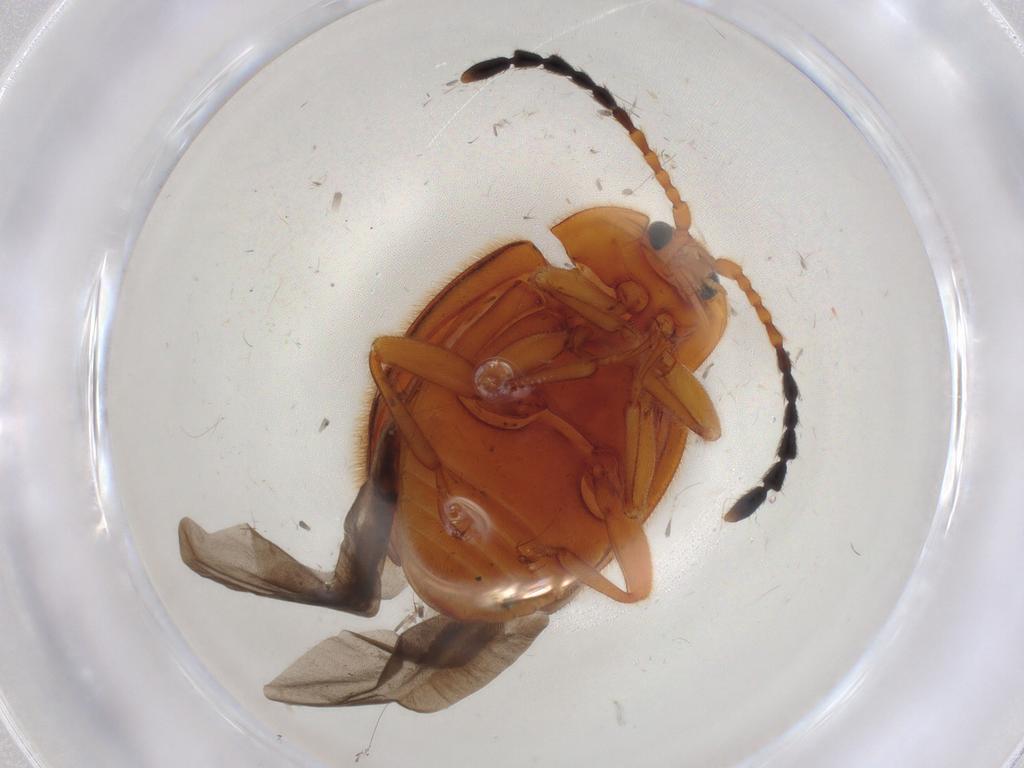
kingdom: Animalia
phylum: Arthropoda
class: Insecta
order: Coleoptera
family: Endomychidae
